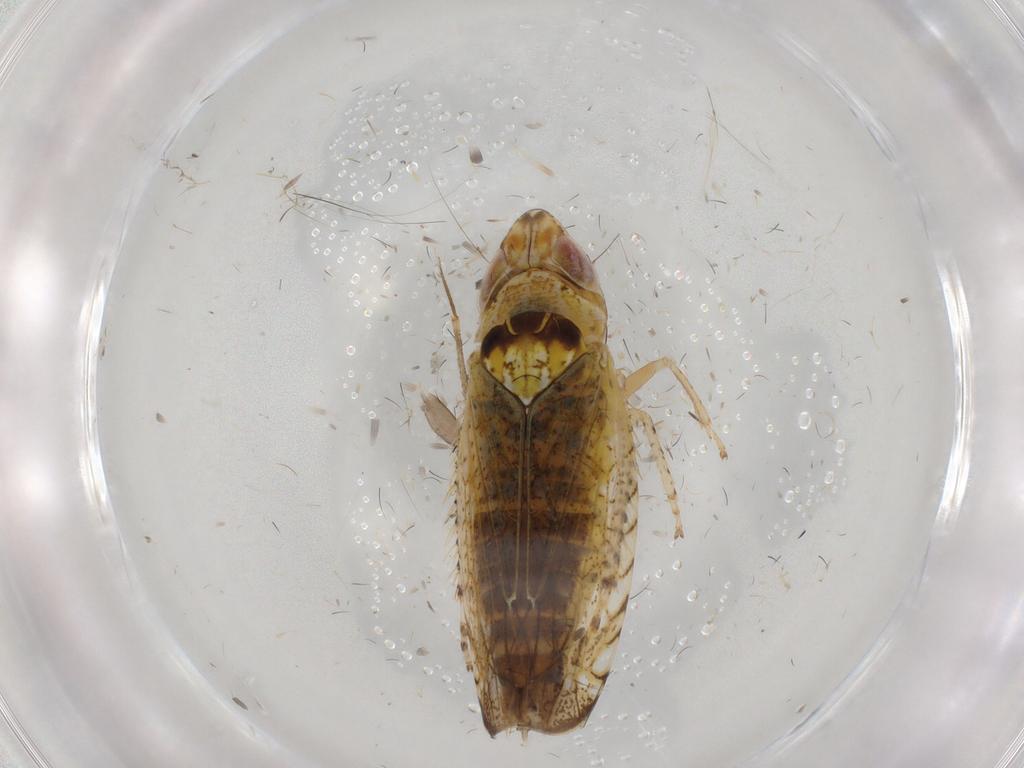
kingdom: Animalia
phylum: Arthropoda
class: Insecta
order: Hemiptera
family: Cicadellidae
